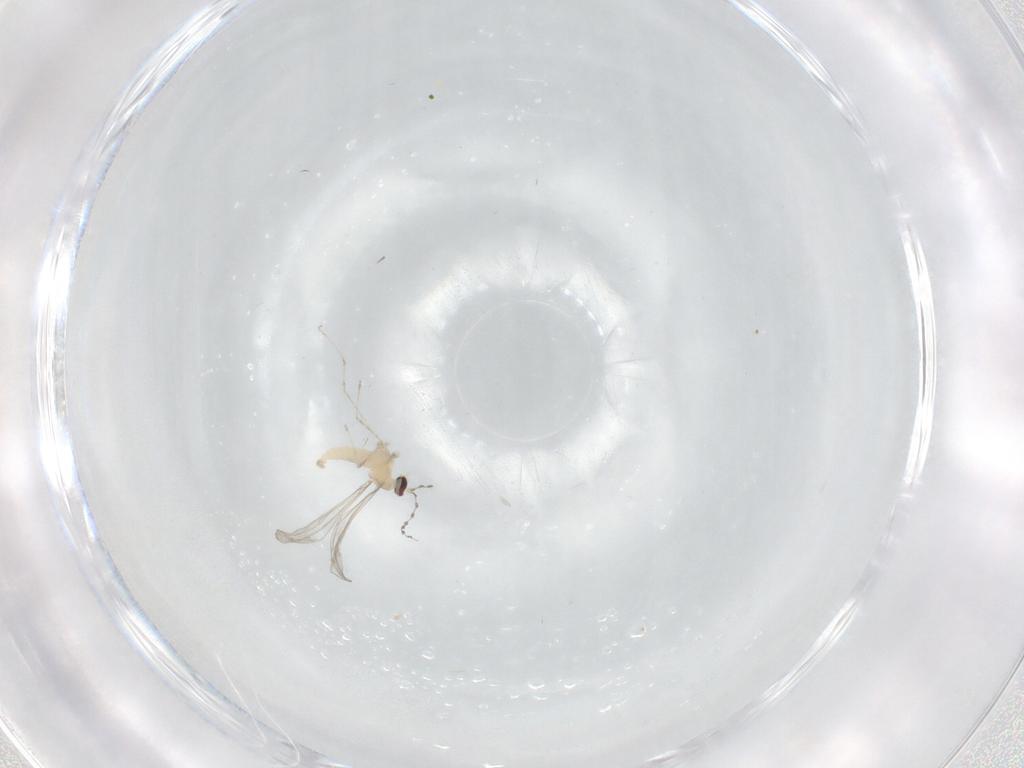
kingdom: Animalia
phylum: Arthropoda
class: Insecta
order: Diptera
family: Cecidomyiidae
